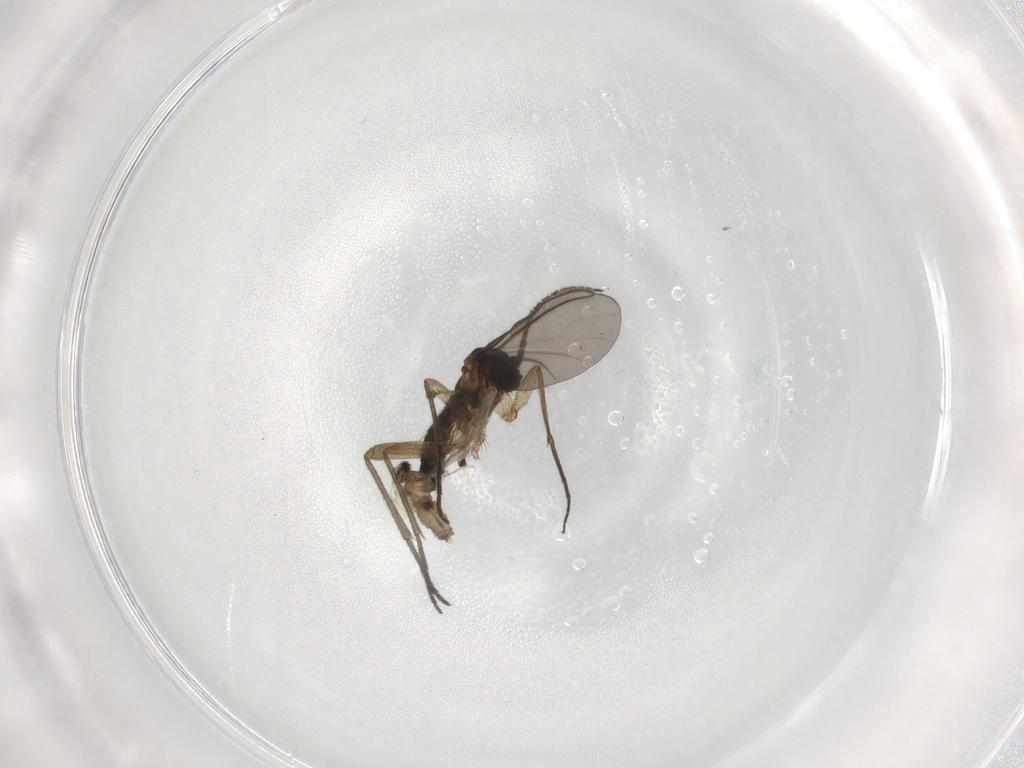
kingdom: Animalia
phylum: Arthropoda
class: Insecta
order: Diptera
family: Sciaridae
